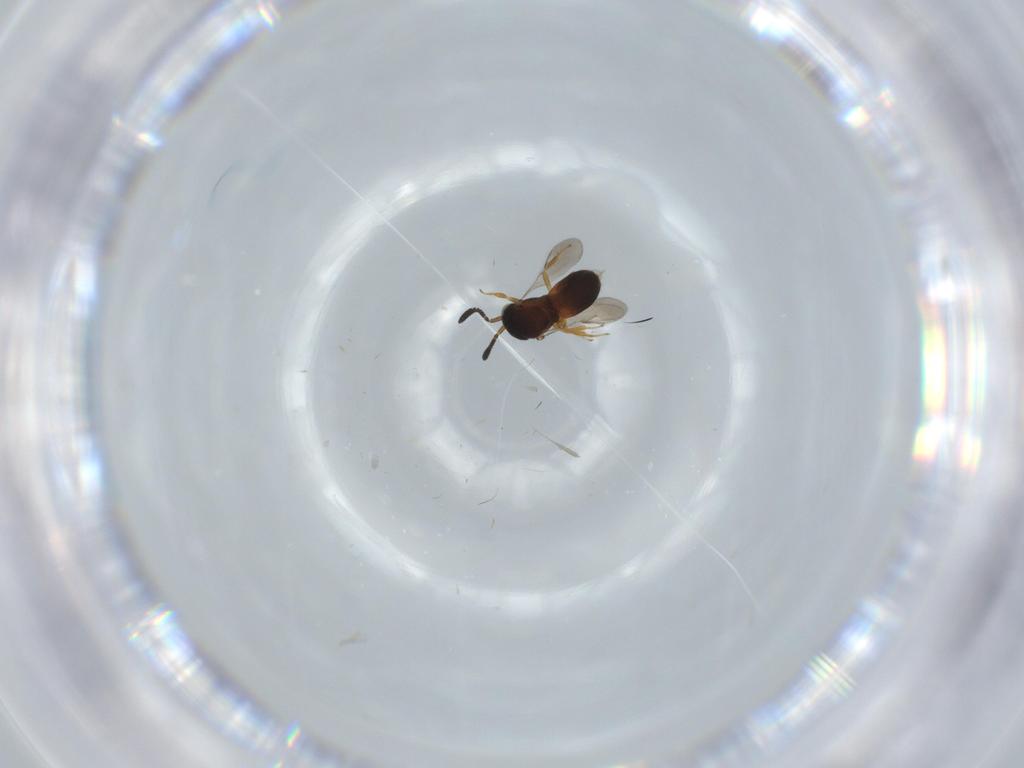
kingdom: Animalia
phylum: Arthropoda
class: Insecta
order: Hymenoptera
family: Scelionidae
